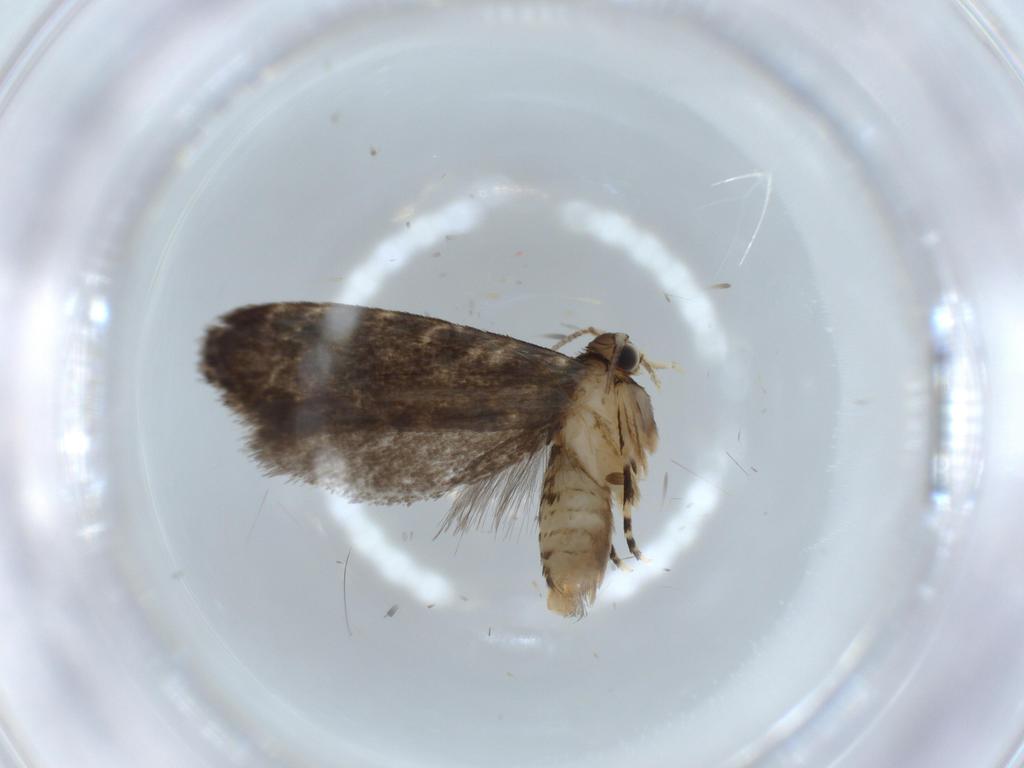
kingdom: Animalia
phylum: Arthropoda
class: Insecta
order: Lepidoptera
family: Tineidae
